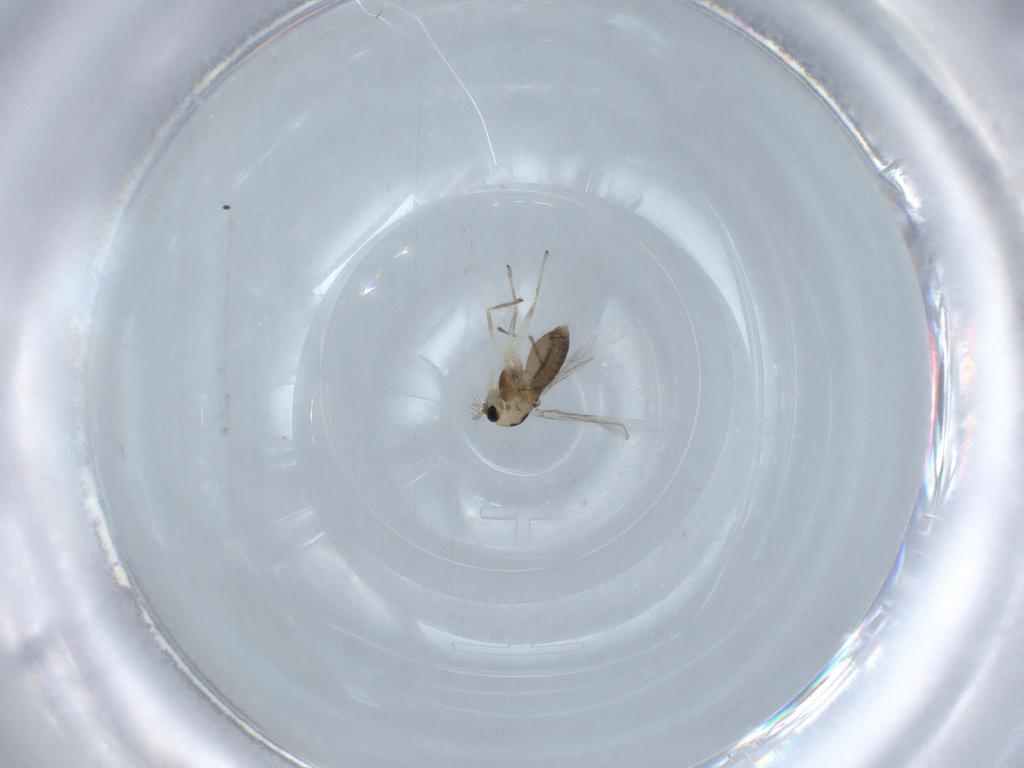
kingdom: Animalia
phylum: Arthropoda
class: Insecta
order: Diptera
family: Chironomidae
